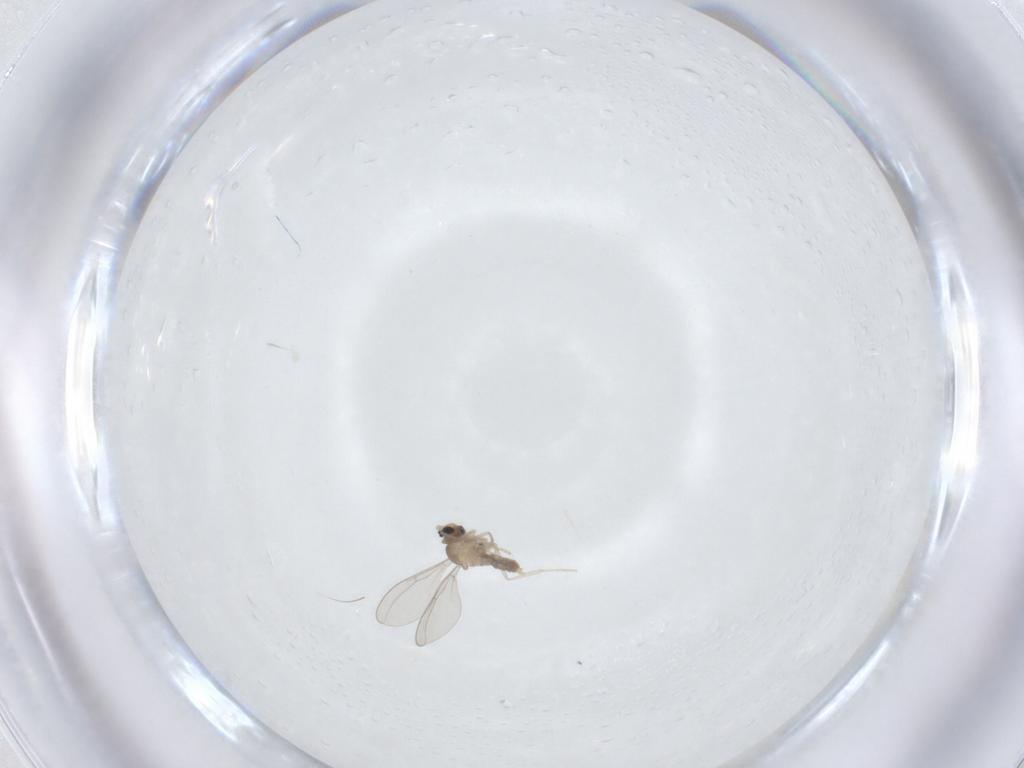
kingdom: Animalia
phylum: Arthropoda
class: Insecta
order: Diptera
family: Cecidomyiidae
